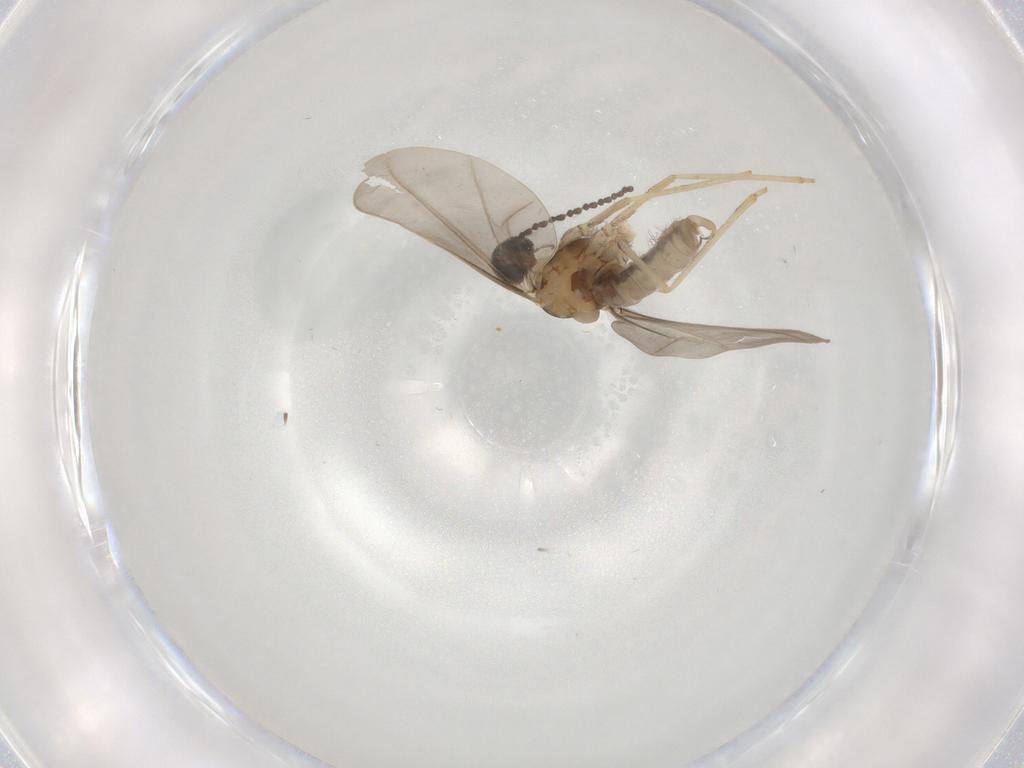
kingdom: Animalia
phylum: Arthropoda
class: Insecta
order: Diptera
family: Cecidomyiidae
